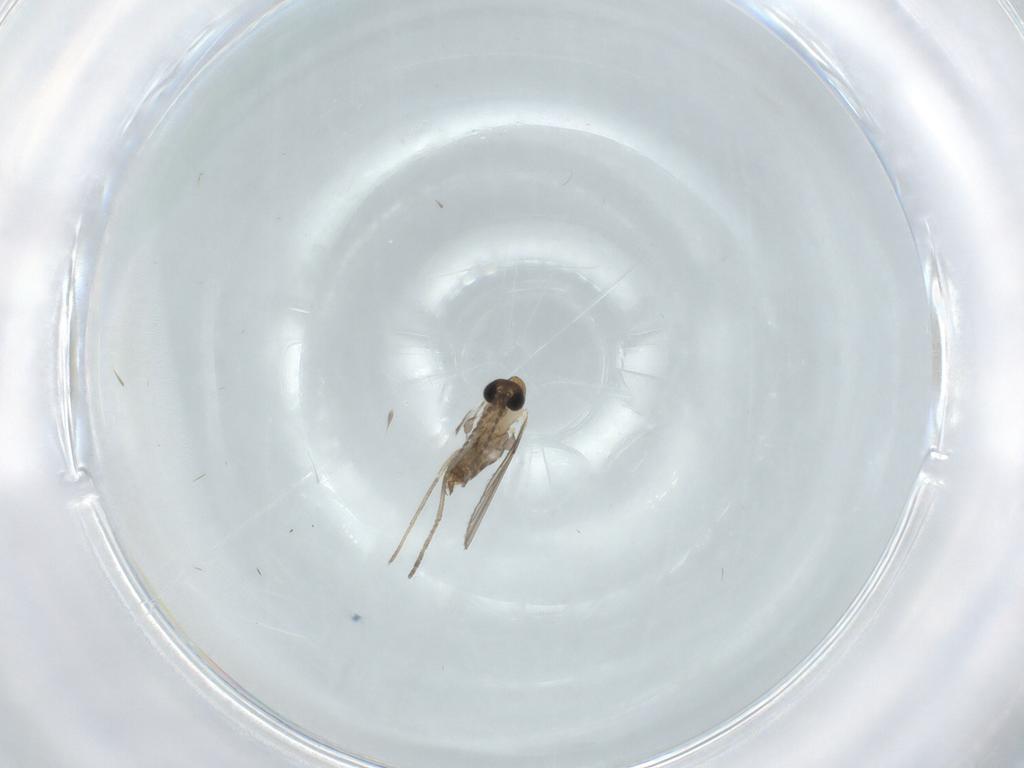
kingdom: Animalia
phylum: Arthropoda
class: Insecta
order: Diptera
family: Psychodidae
